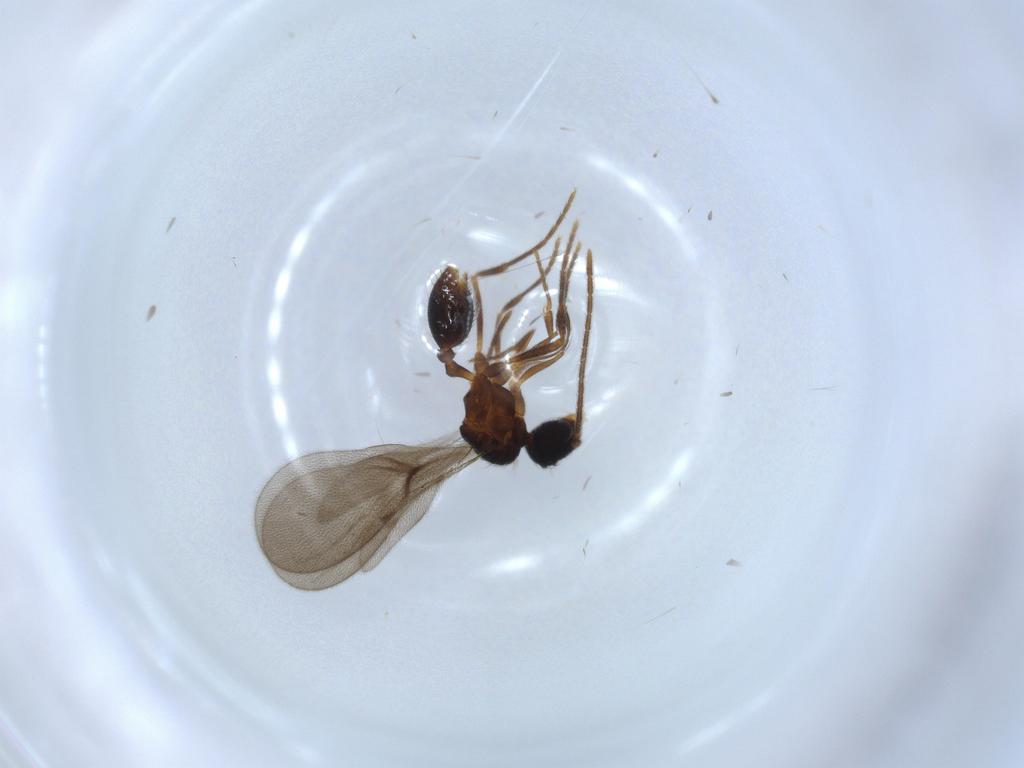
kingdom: Animalia
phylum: Arthropoda
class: Insecta
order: Hymenoptera
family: Formicidae
